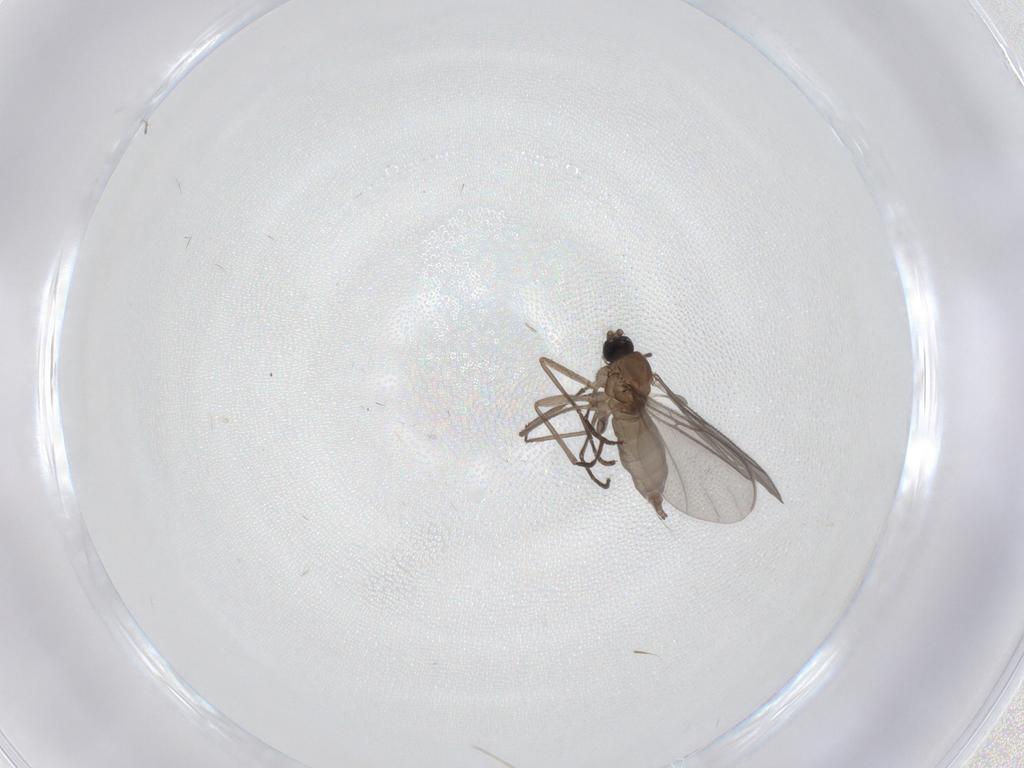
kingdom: Animalia
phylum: Arthropoda
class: Insecta
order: Diptera
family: Sciaridae
